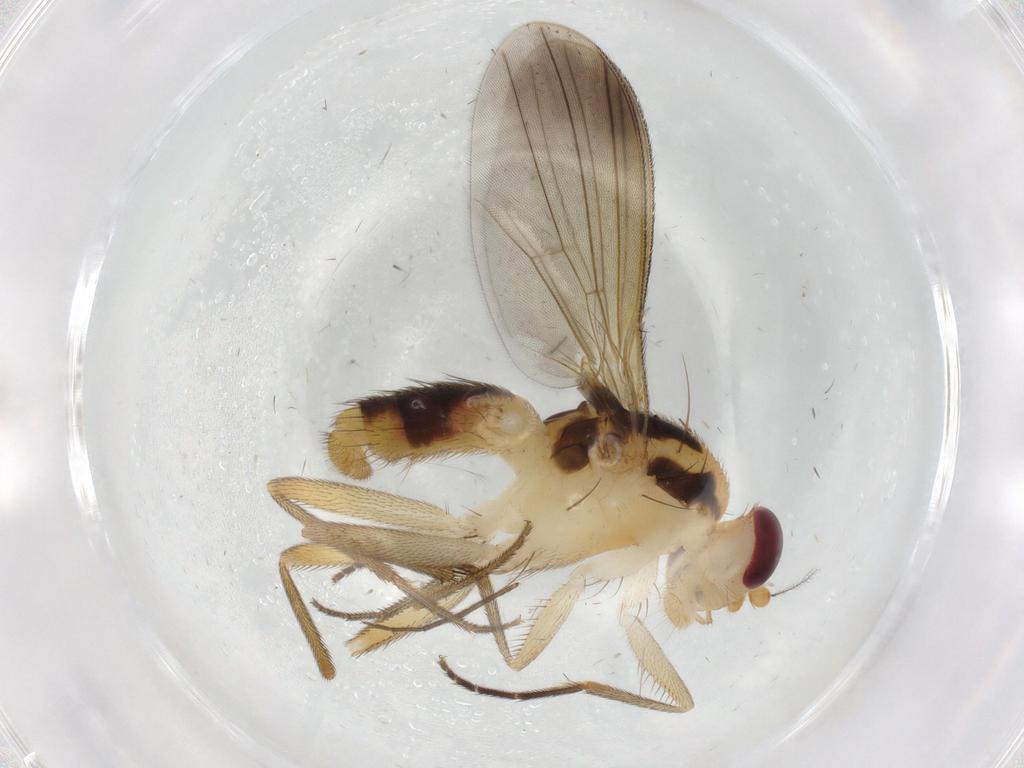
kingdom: Animalia
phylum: Arthropoda
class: Insecta
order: Diptera
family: Clusiidae
